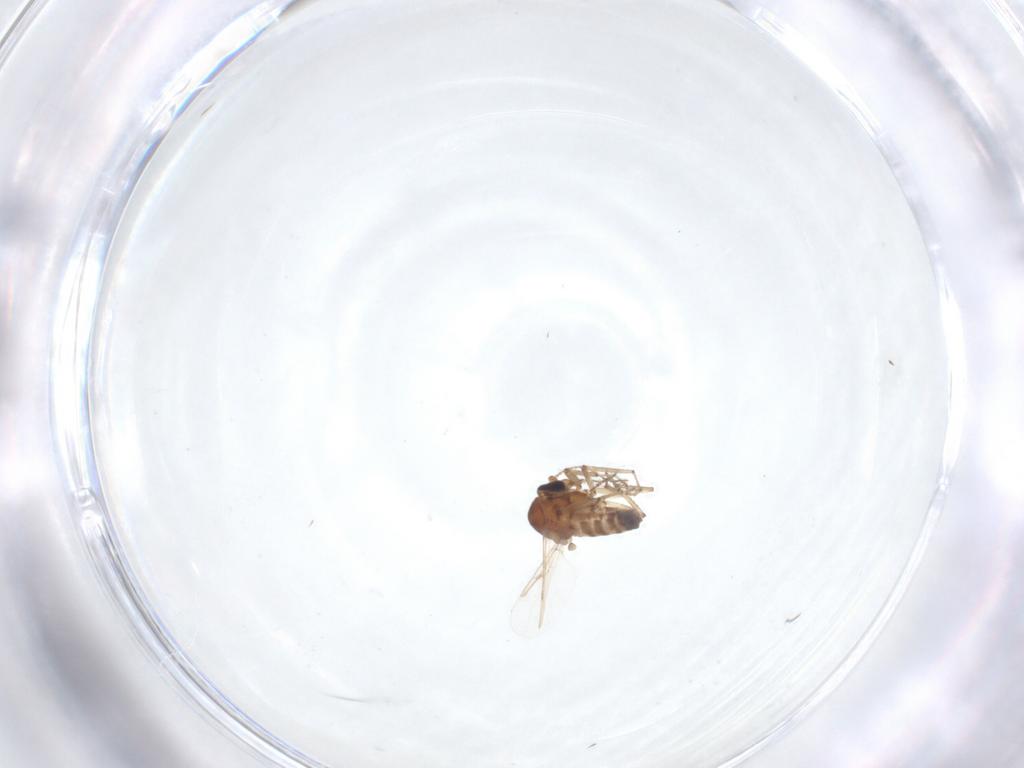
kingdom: Animalia
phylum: Arthropoda
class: Insecta
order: Diptera
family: Ceratopogonidae
